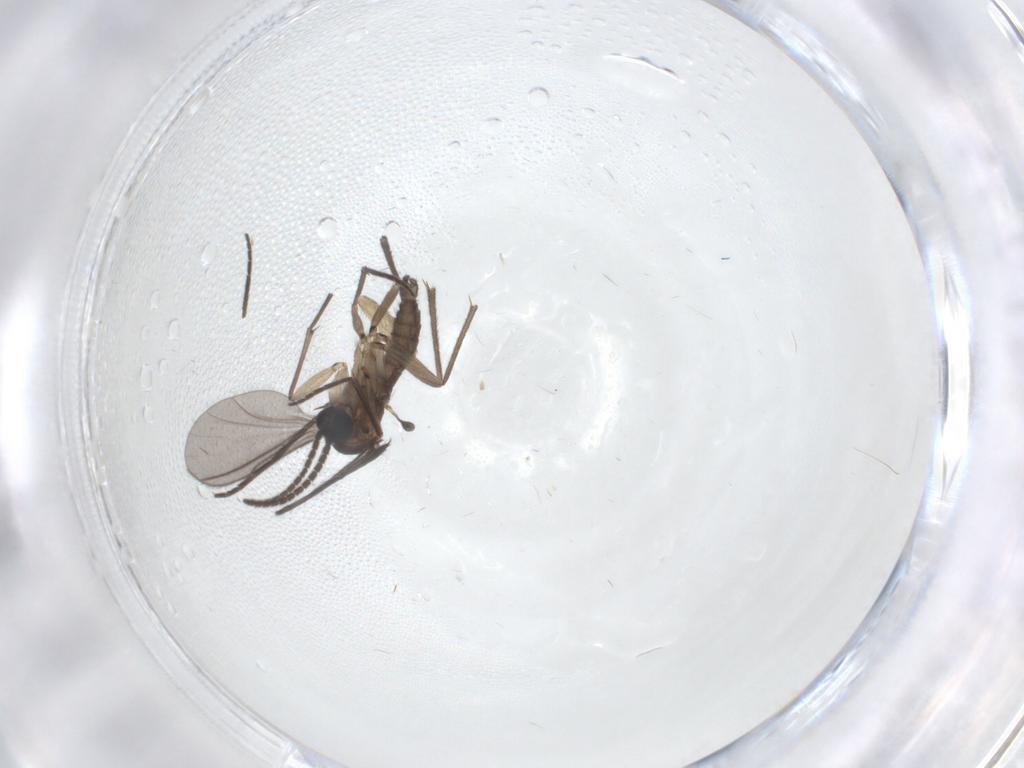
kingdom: Animalia
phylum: Arthropoda
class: Insecta
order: Diptera
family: Sciaridae
